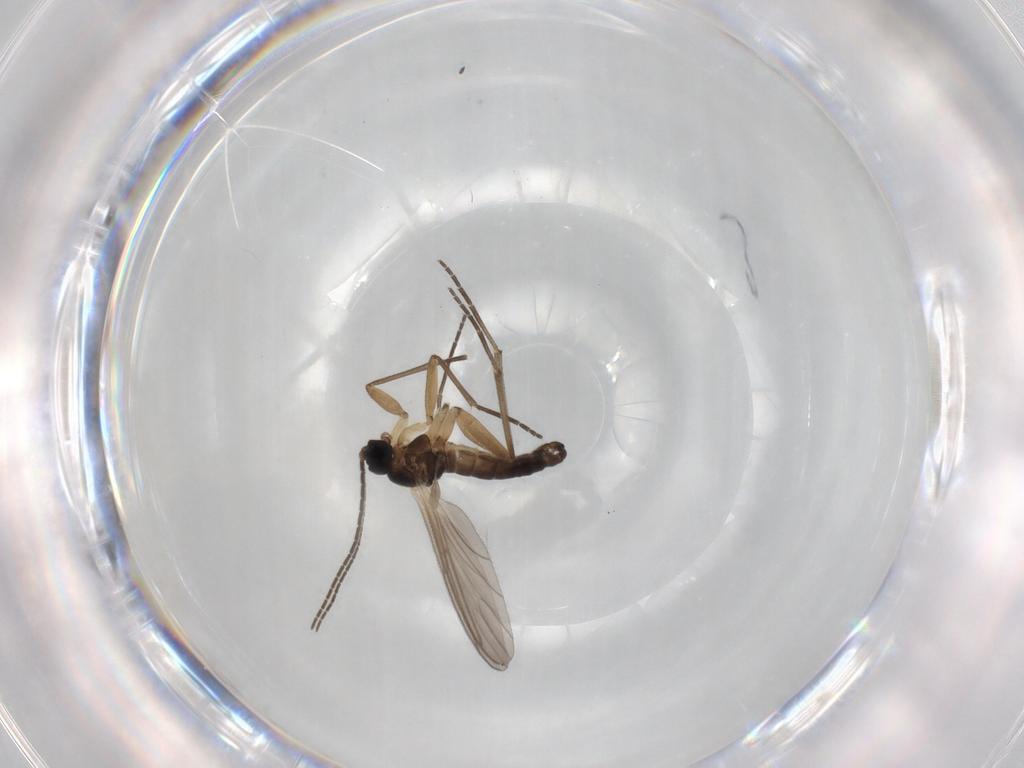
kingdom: Animalia
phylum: Arthropoda
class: Insecta
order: Diptera
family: Sciaridae
